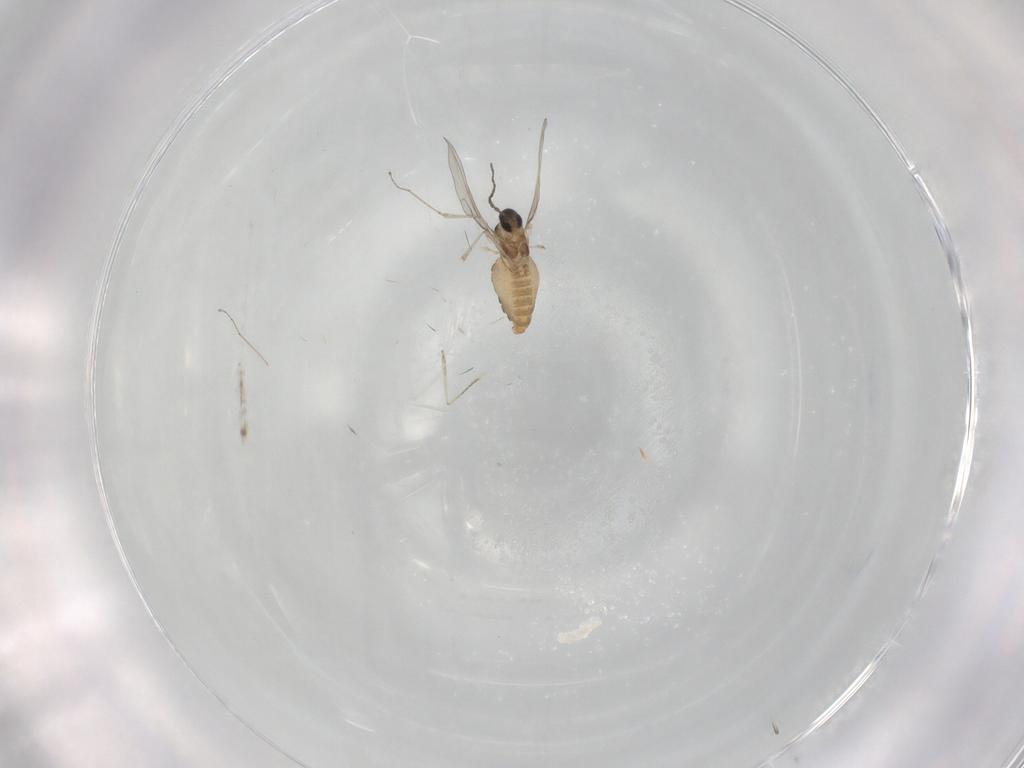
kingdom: Animalia
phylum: Arthropoda
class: Insecta
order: Diptera
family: Cecidomyiidae
